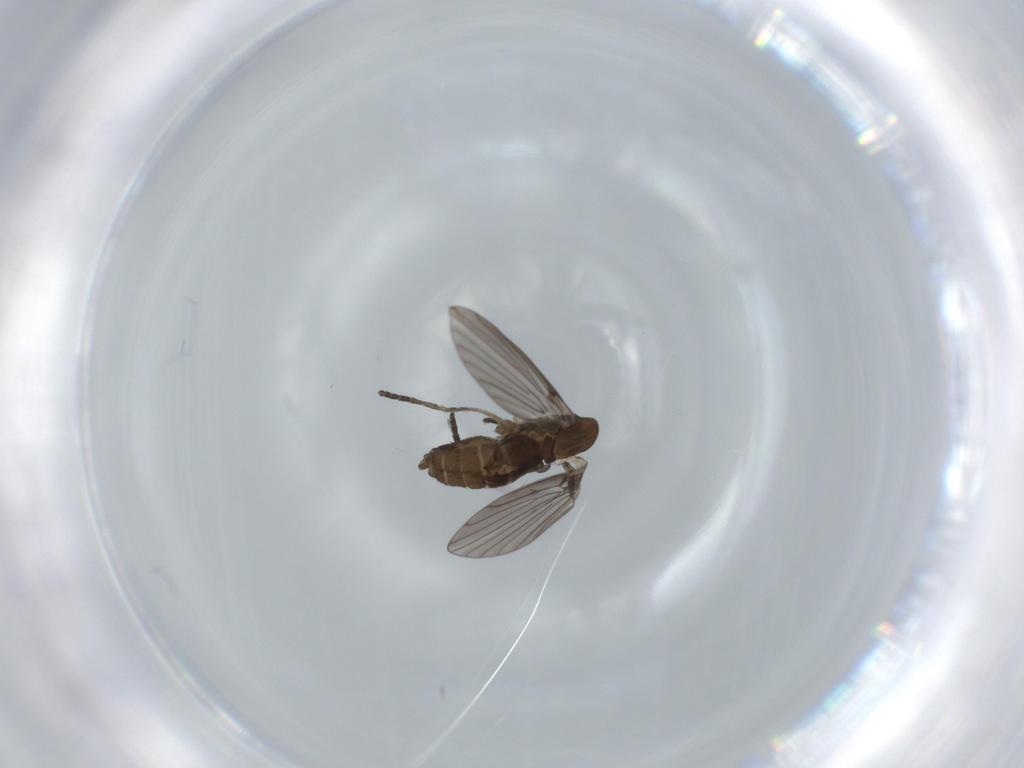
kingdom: Animalia
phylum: Arthropoda
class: Insecta
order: Diptera
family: Psychodidae
